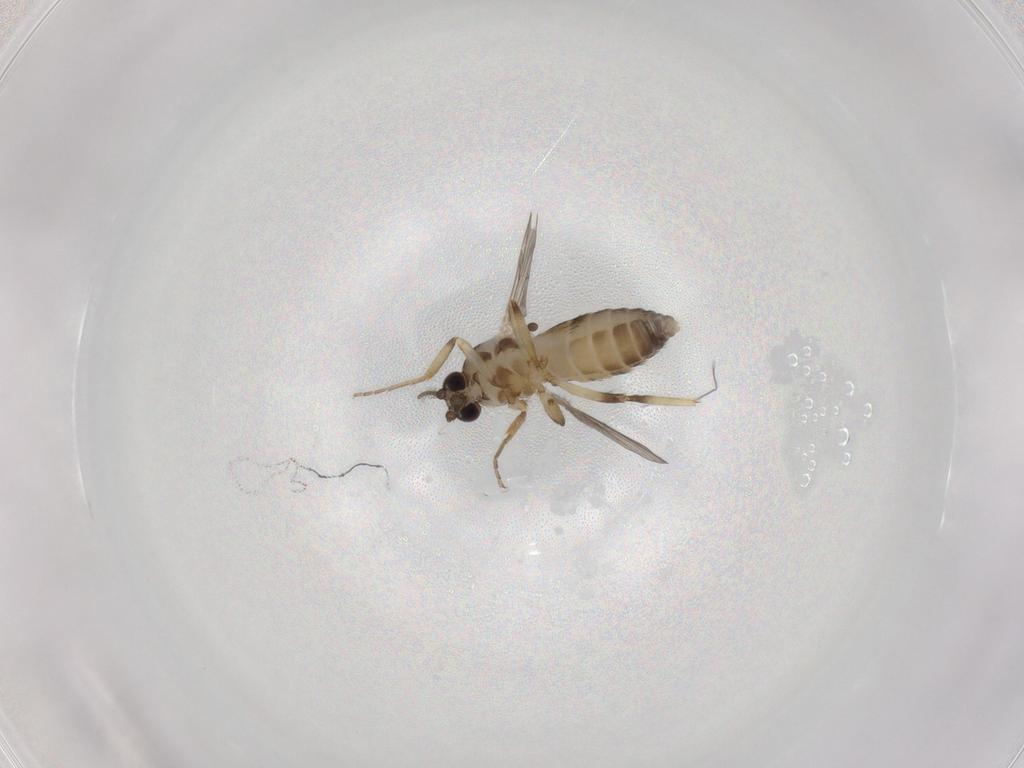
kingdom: Animalia
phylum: Arthropoda
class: Insecta
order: Diptera
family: Ceratopogonidae
